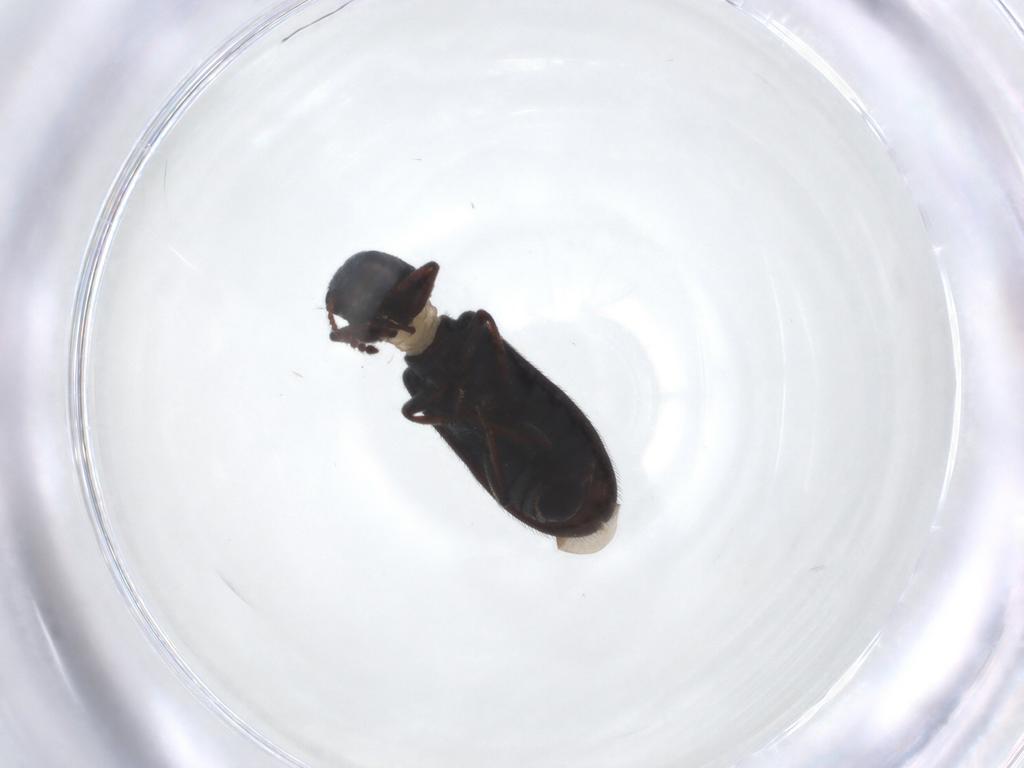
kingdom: Animalia
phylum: Arthropoda
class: Insecta
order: Coleoptera
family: Melyridae
